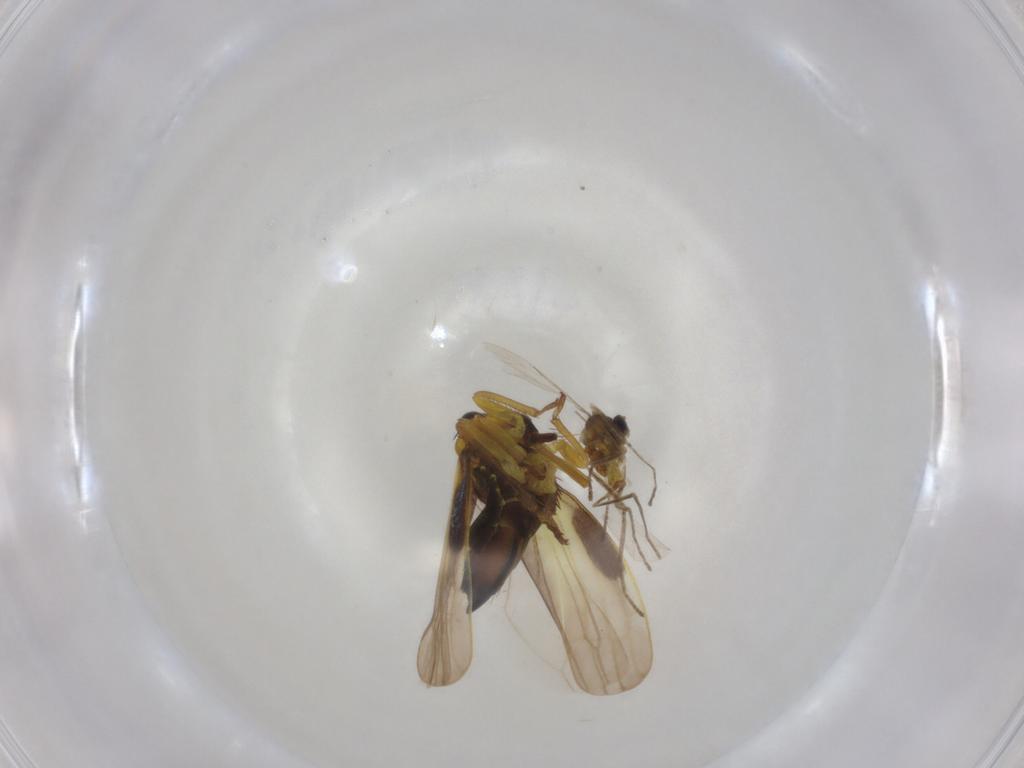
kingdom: Animalia
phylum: Arthropoda
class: Insecta
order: Diptera
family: Chironomidae
